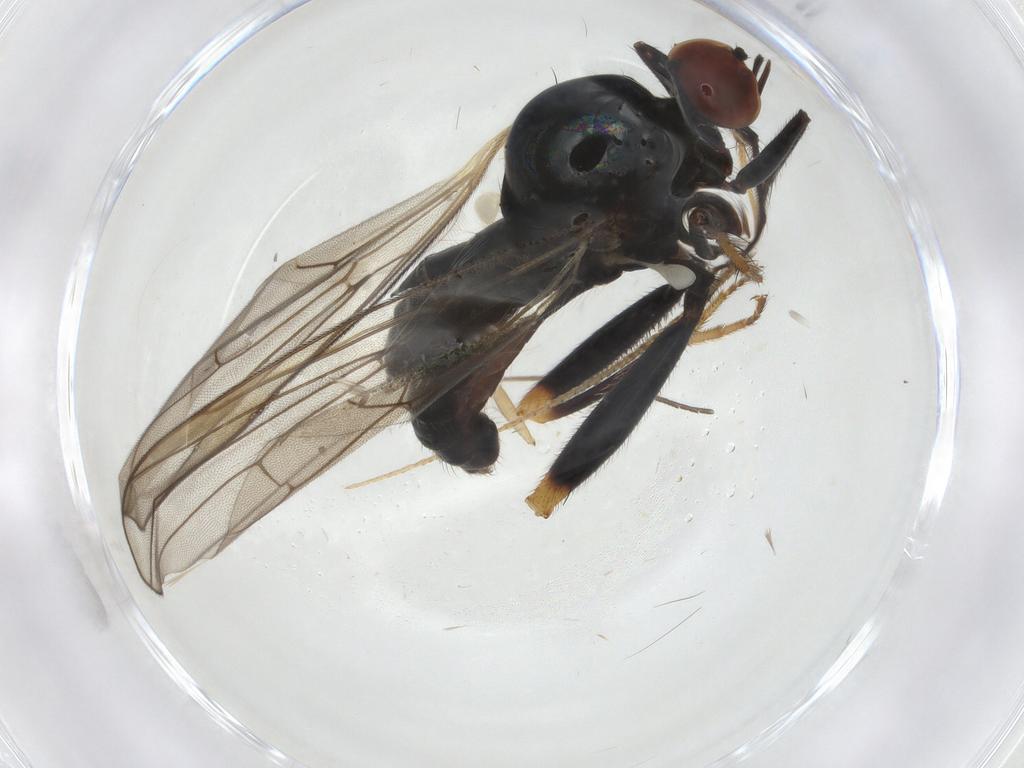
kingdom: Animalia
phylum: Arthropoda
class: Insecta
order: Diptera
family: Hybotidae
